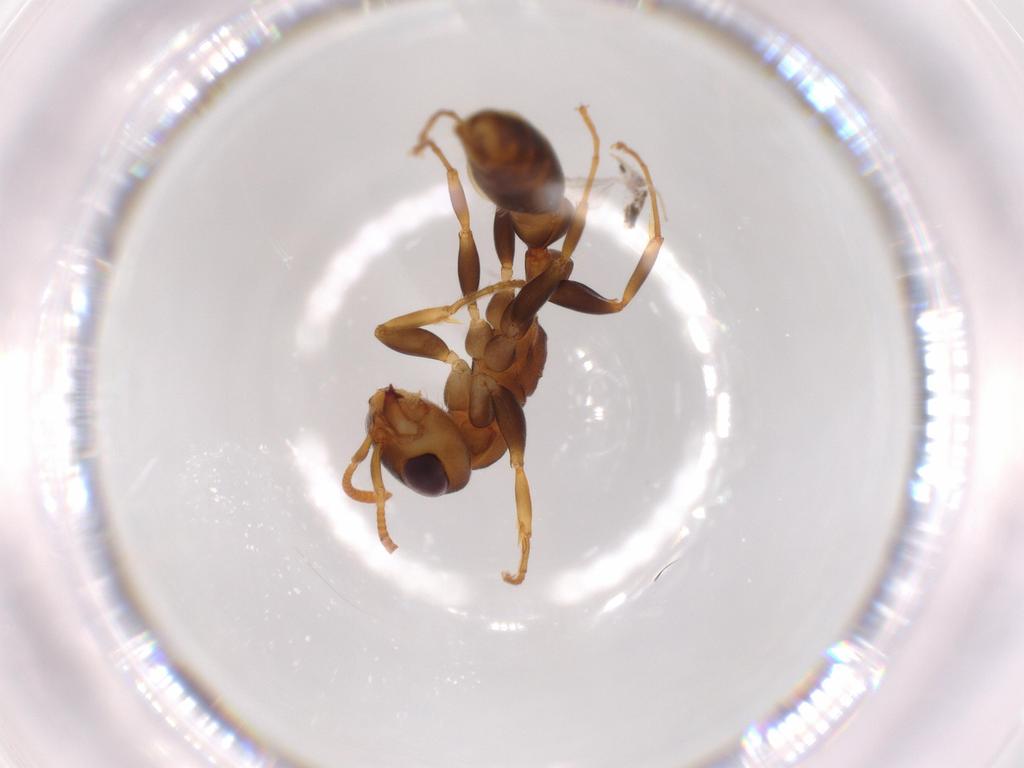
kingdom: Animalia
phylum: Arthropoda
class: Insecta
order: Hymenoptera
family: Formicidae
